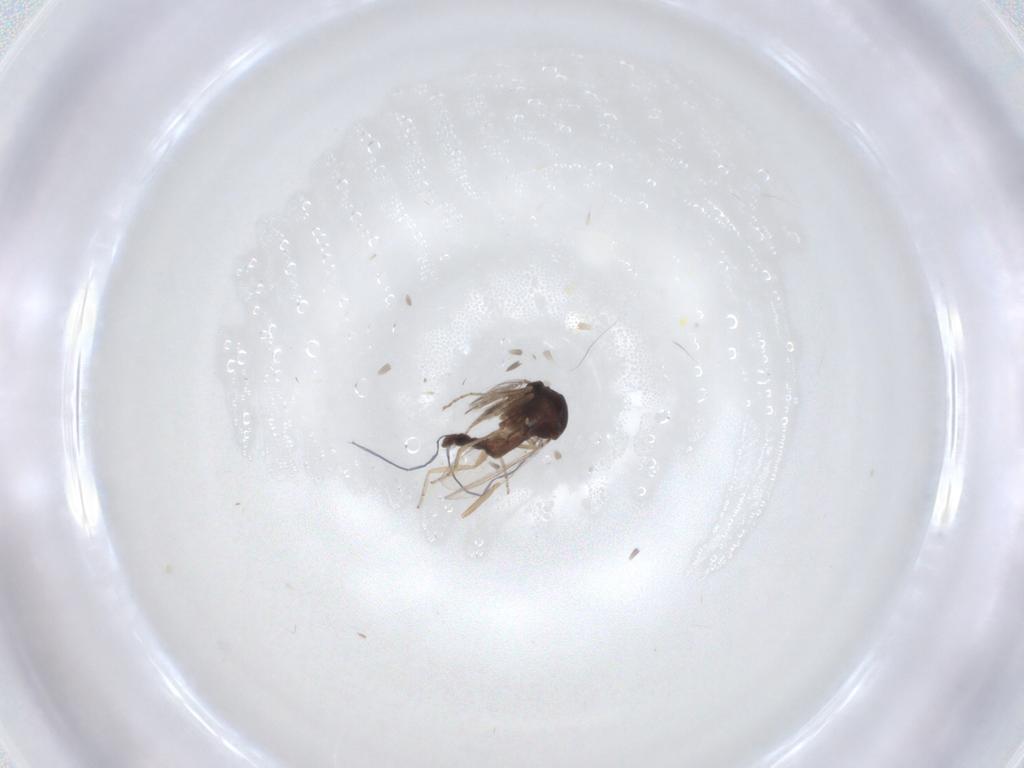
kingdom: Animalia
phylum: Arthropoda
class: Insecta
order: Diptera
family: Ceratopogonidae
